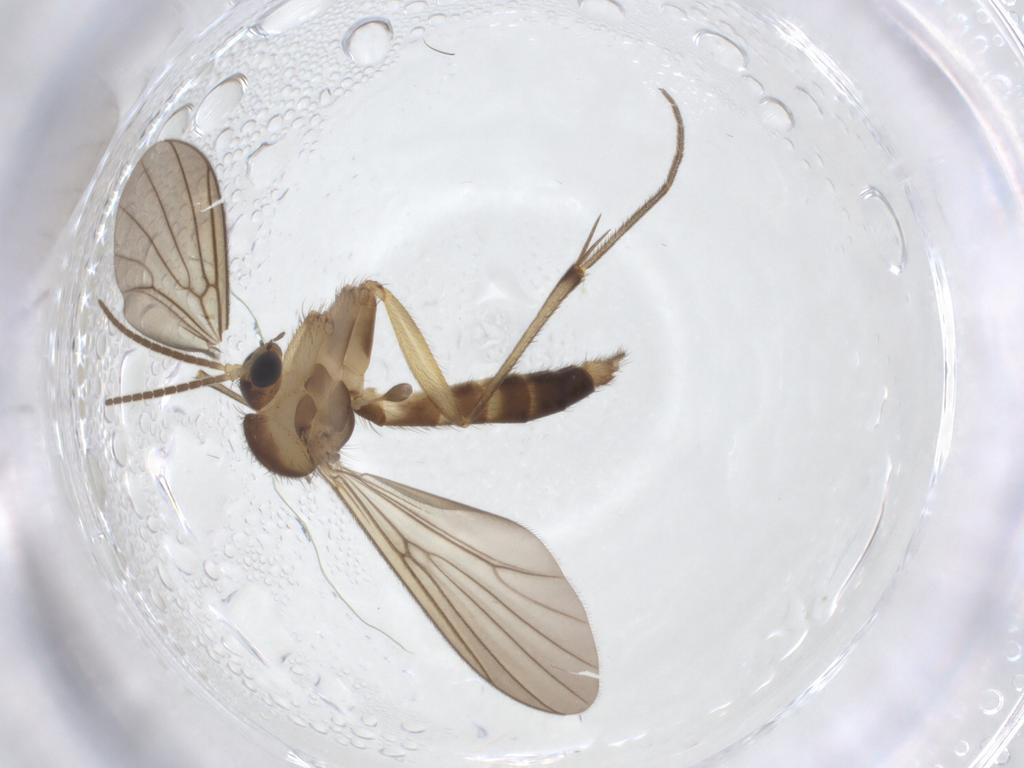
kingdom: Animalia
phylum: Arthropoda
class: Insecta
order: Diptera
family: Mycetophilidae
